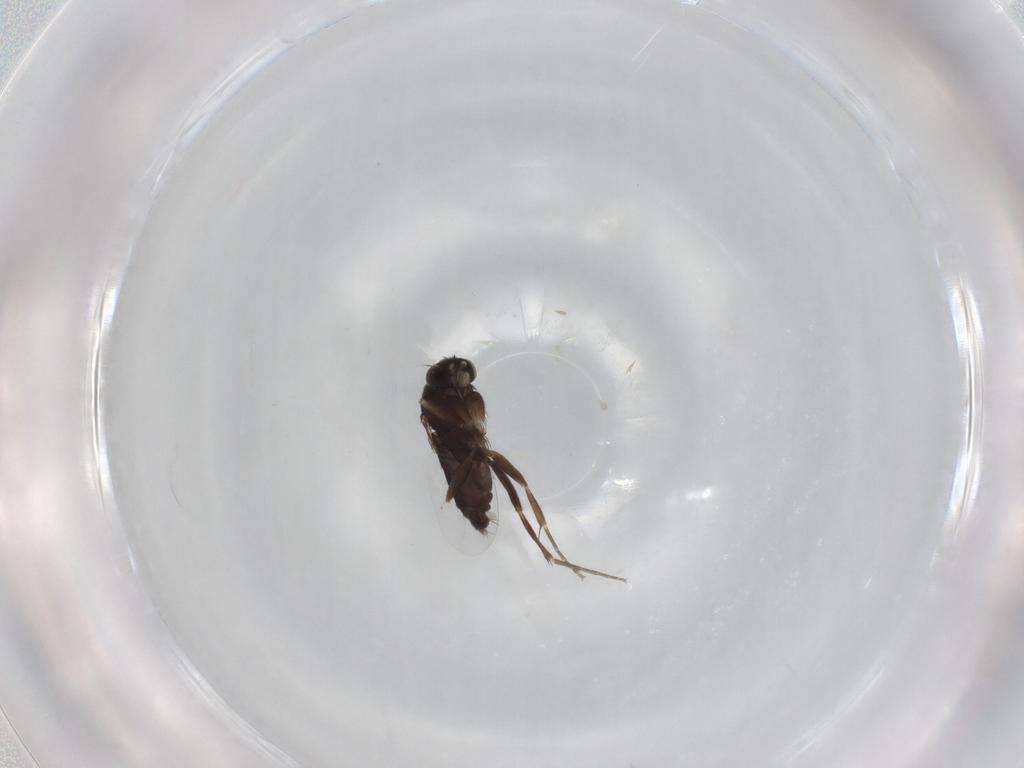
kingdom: Animalia
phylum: Arthropoda
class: Insecta
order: Diptera
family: Phoridae
